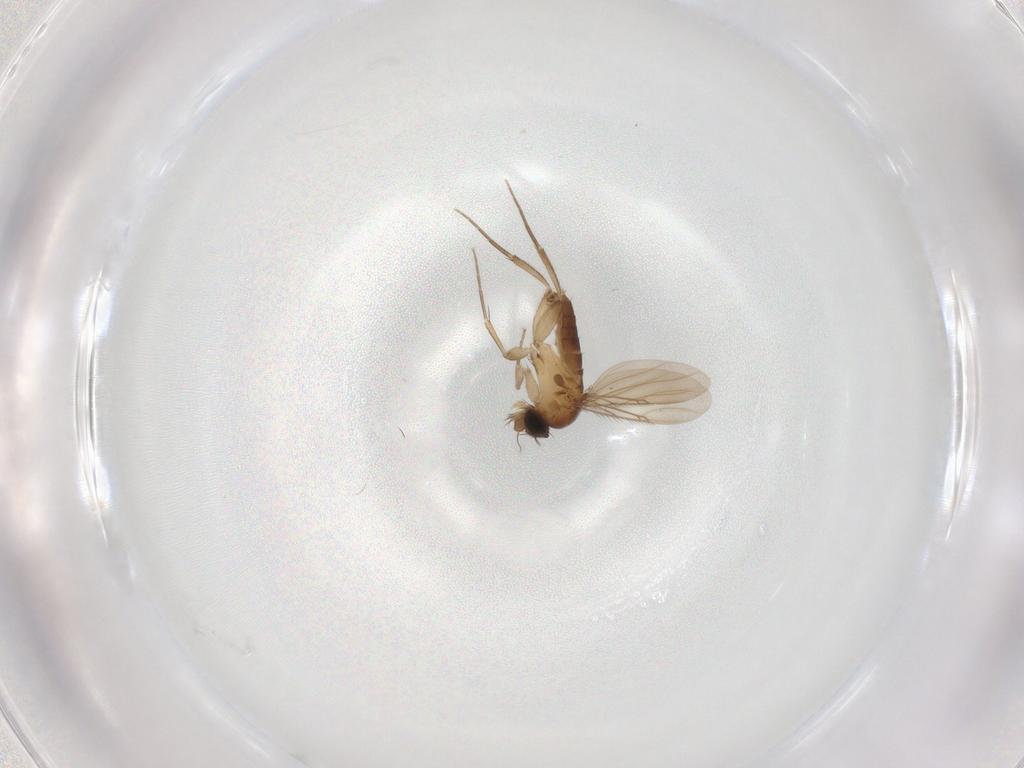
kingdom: Animalia
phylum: Arthropoda
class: Insecta
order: Diptera
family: Phoridae
